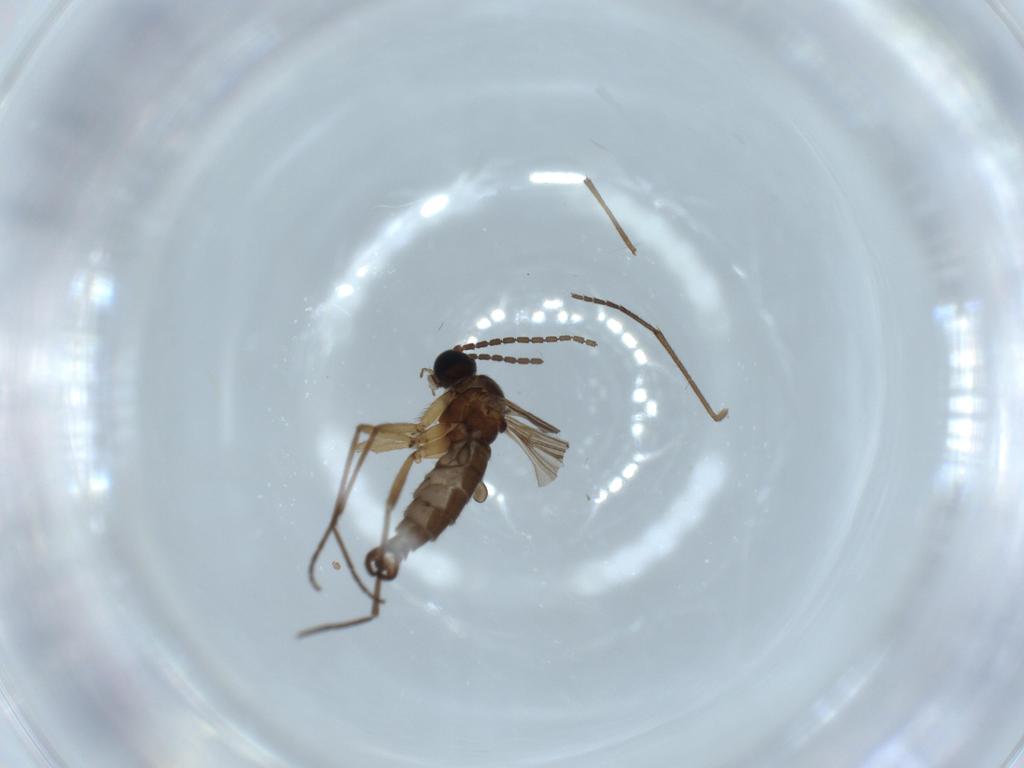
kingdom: Animalia
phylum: Arthropoda
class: Insecta
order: Diptera
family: Sciaridae
